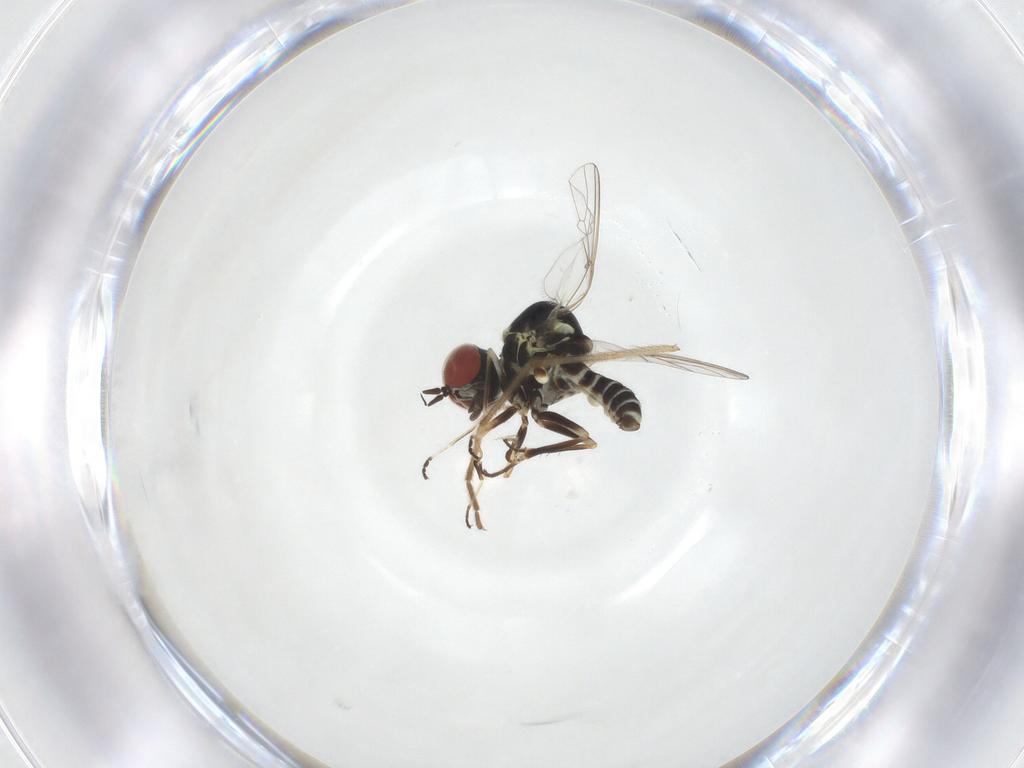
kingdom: Animalia
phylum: Arthropoda
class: Insecta
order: Diptera
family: Bombyliidae
